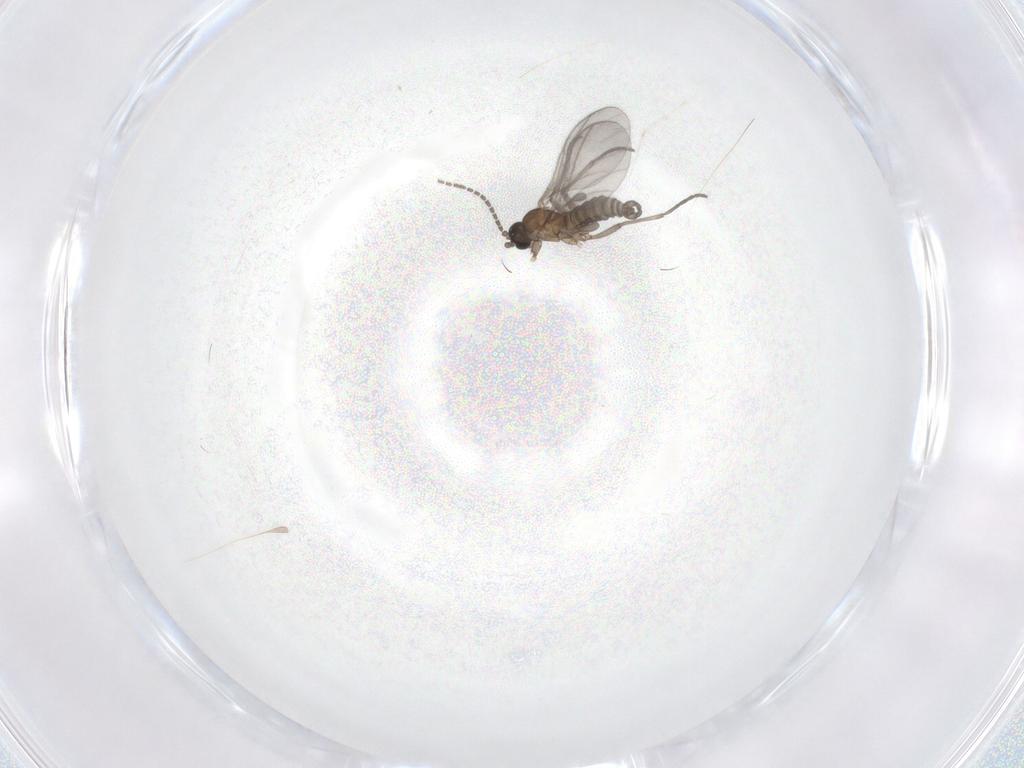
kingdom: Animalia
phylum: Arthropoda
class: Insecta
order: Diptera
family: Sciaridae
